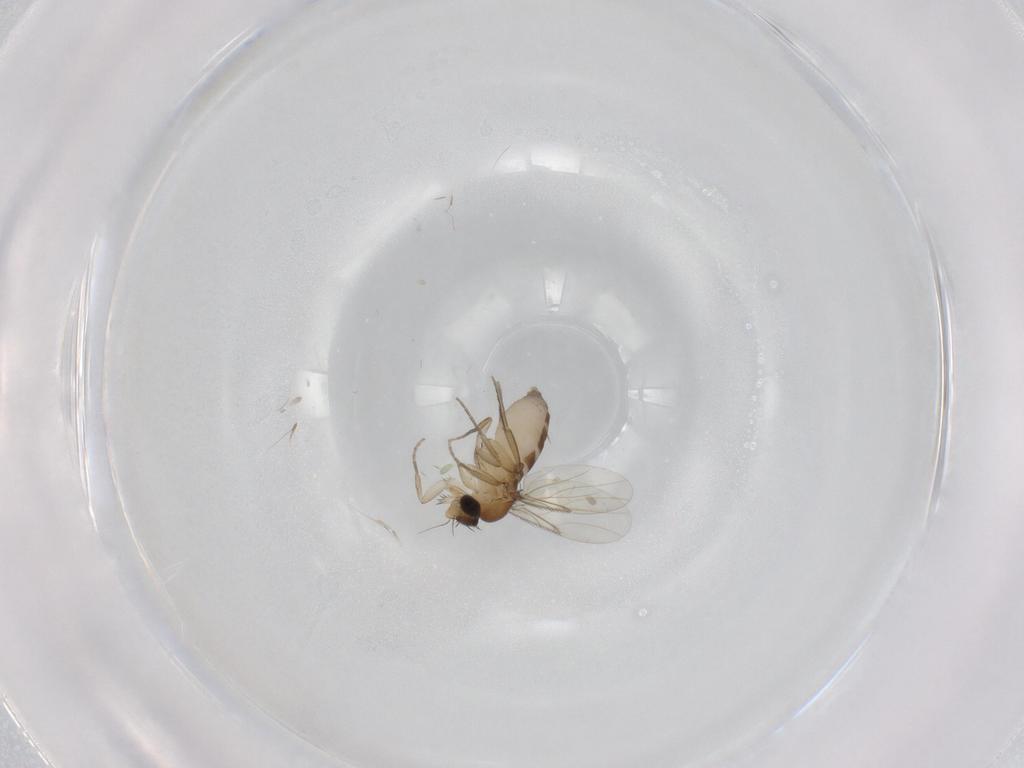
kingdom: Animalia
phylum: Arthropoda
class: Insecta
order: Diptera
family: Phoridae
